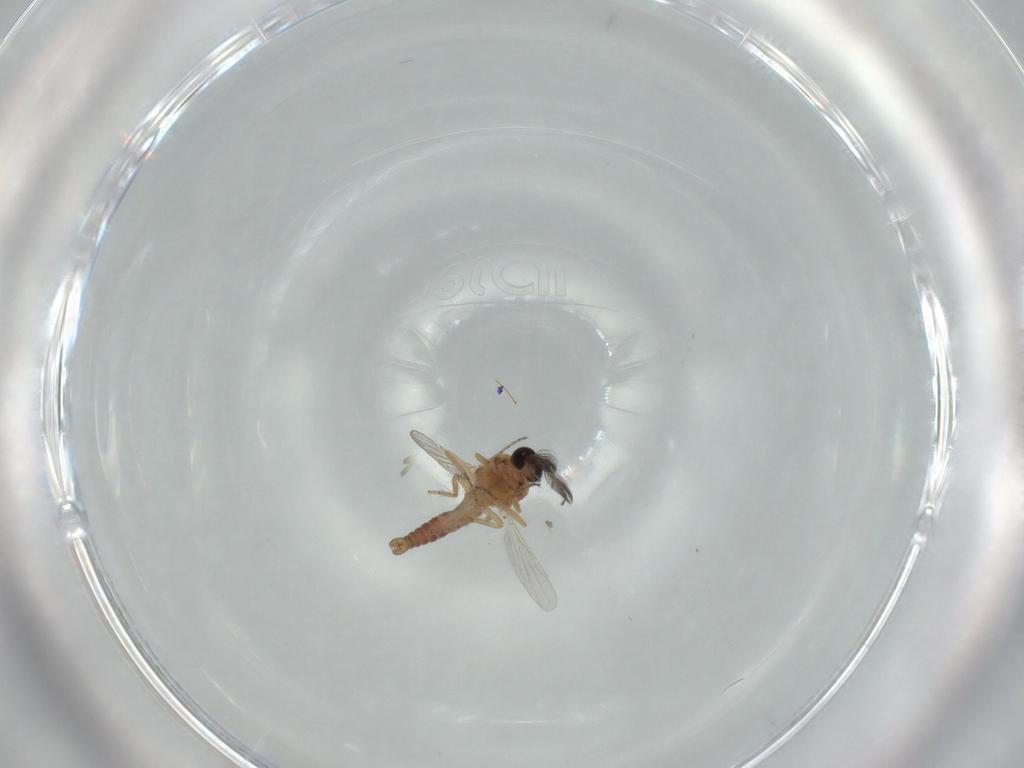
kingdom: Animalia
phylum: Arthropoda
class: Insecta
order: Diptera
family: Ceratopogonidae
